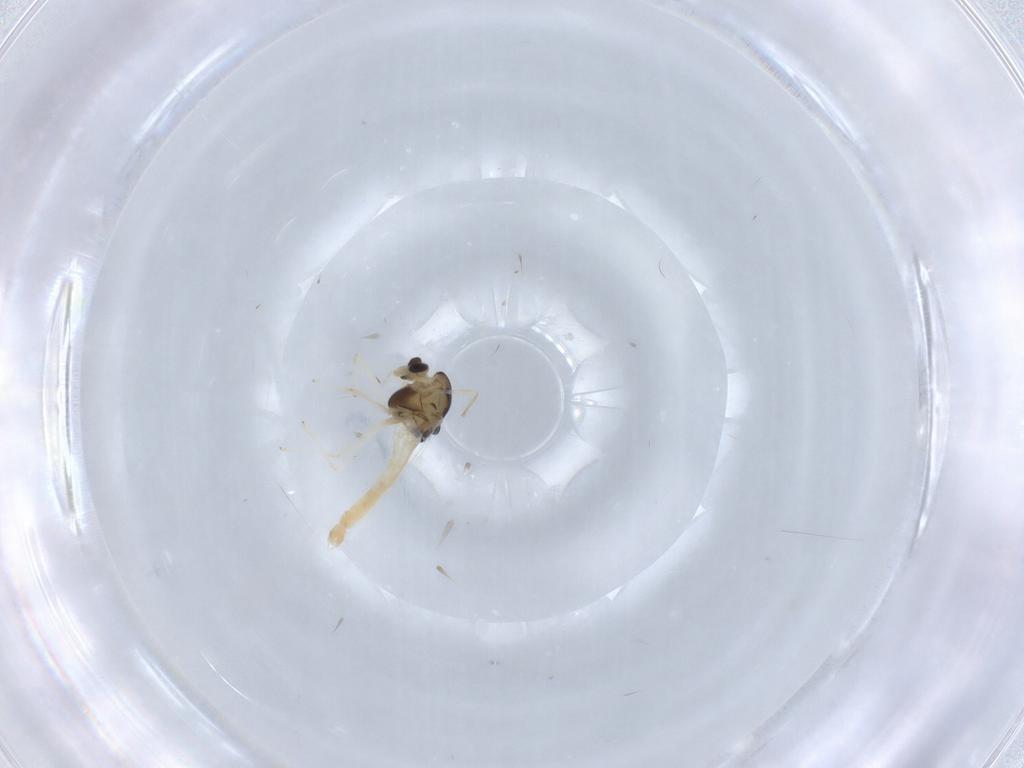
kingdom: Animalia
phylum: Arthropoda
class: Insecta
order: Diptera
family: Chironomidae
